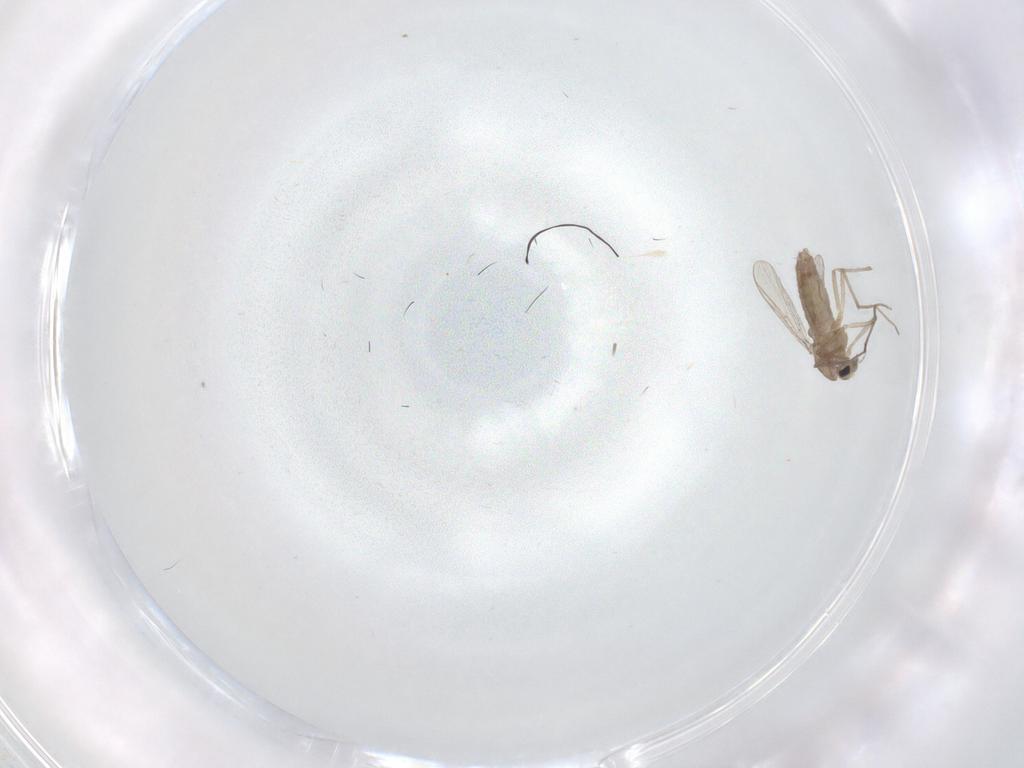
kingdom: Animalia
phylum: Arthropoda
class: Insecta
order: Diptera
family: Chironomidae
